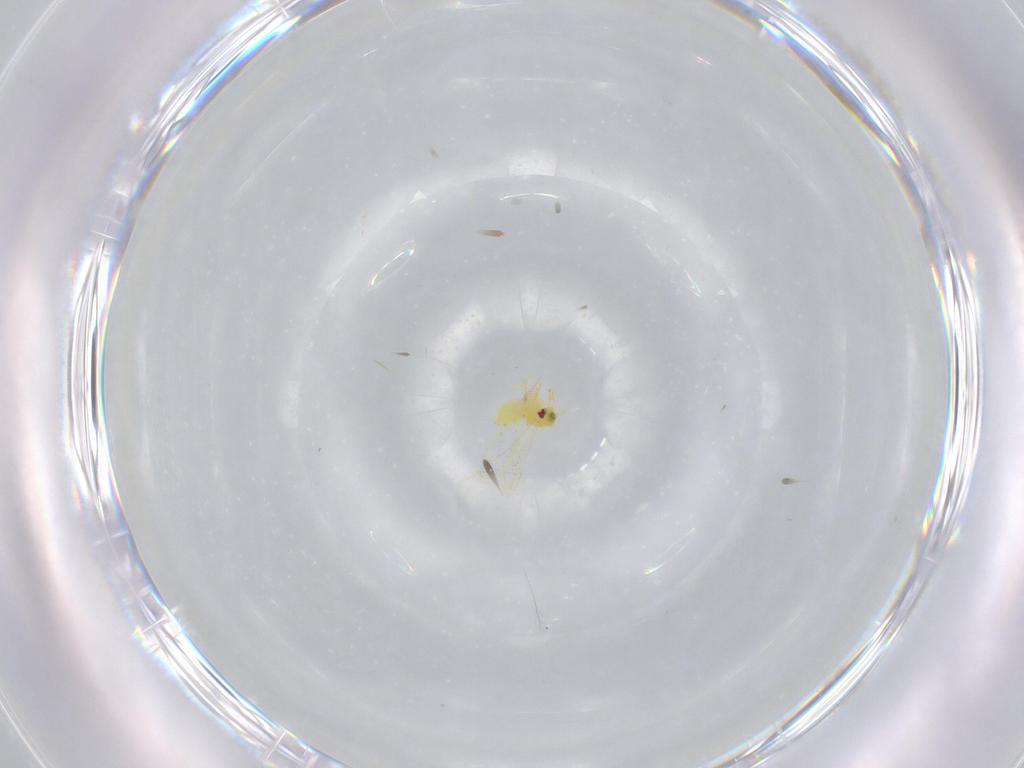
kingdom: Animalia
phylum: Arthropoda
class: Insecta
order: Hemiptera
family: Aleyrodidae
